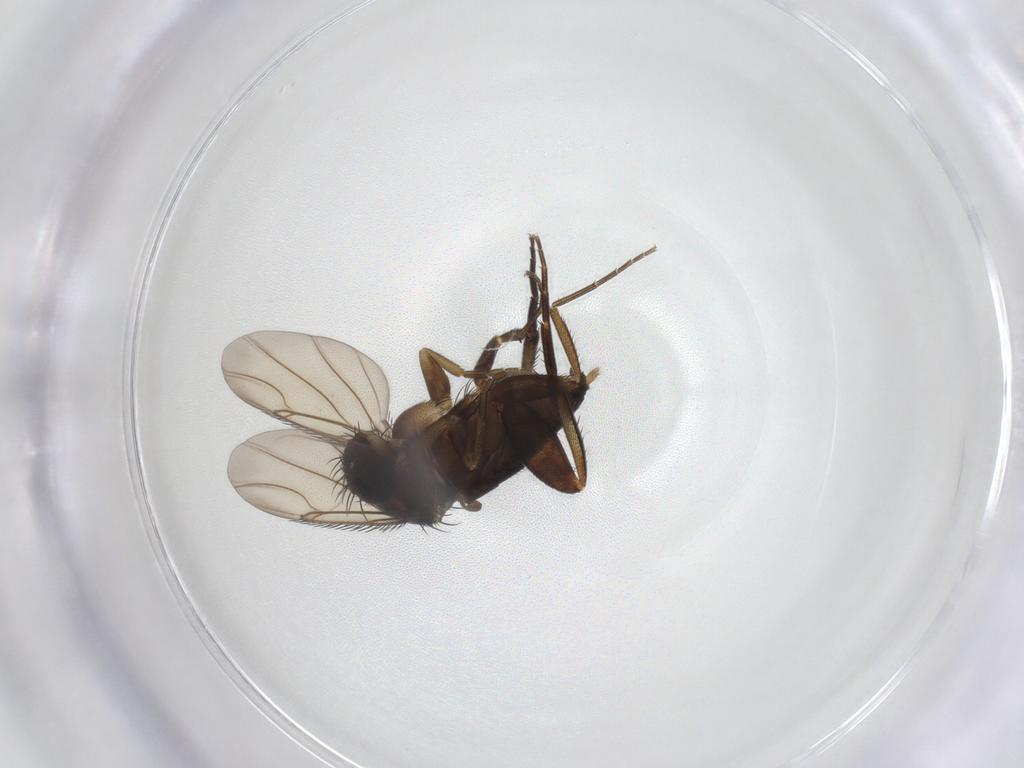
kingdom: Animalia
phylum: Arthropoda
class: Insecta
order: Diptera
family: Phoridae
